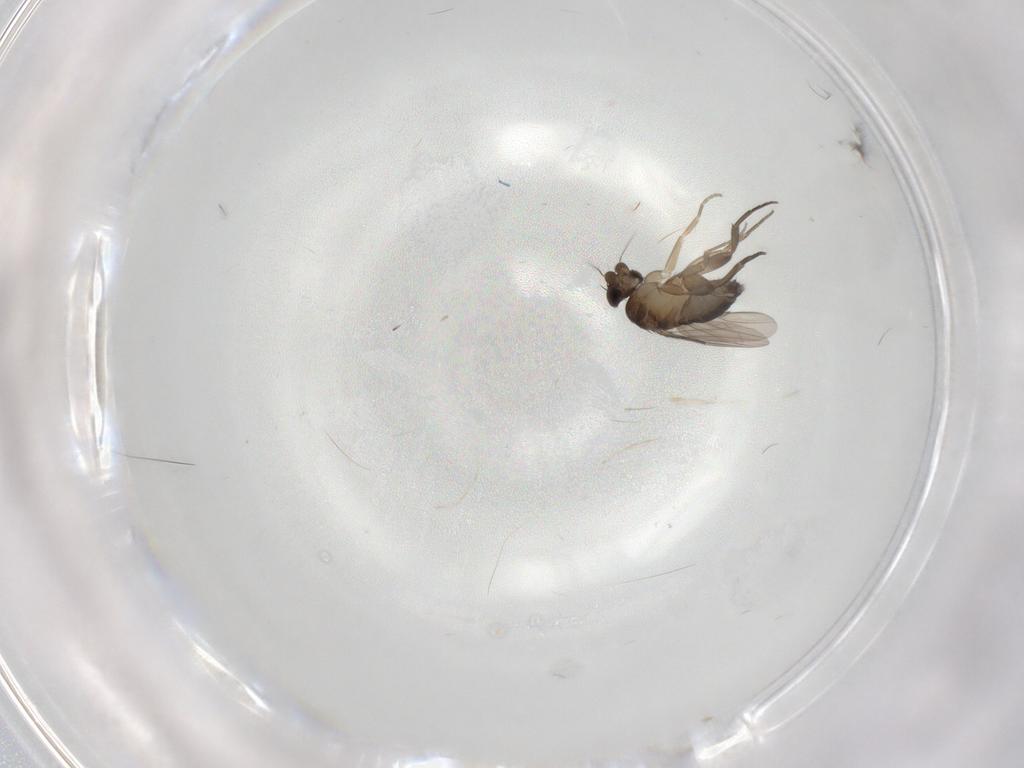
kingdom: Animalia
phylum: Arthropoda
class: Insecta
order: Diptera
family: Phoridae
